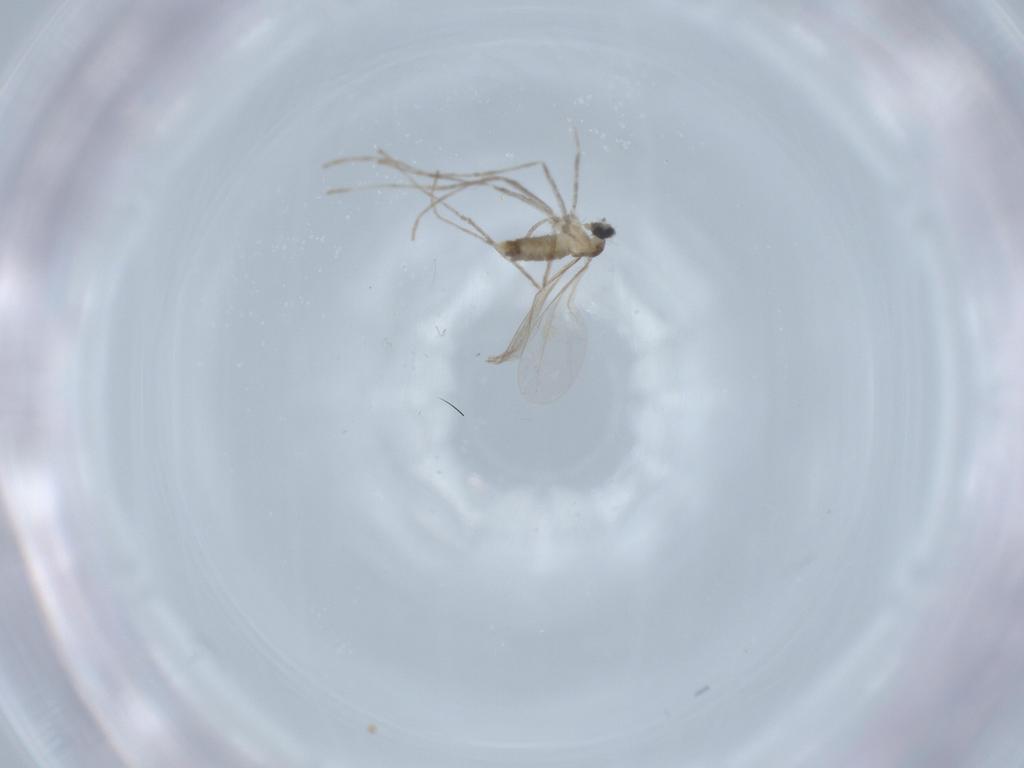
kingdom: Animalia
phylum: Arthropoda
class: Insecta
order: Diptera
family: Cecidomyiidae
